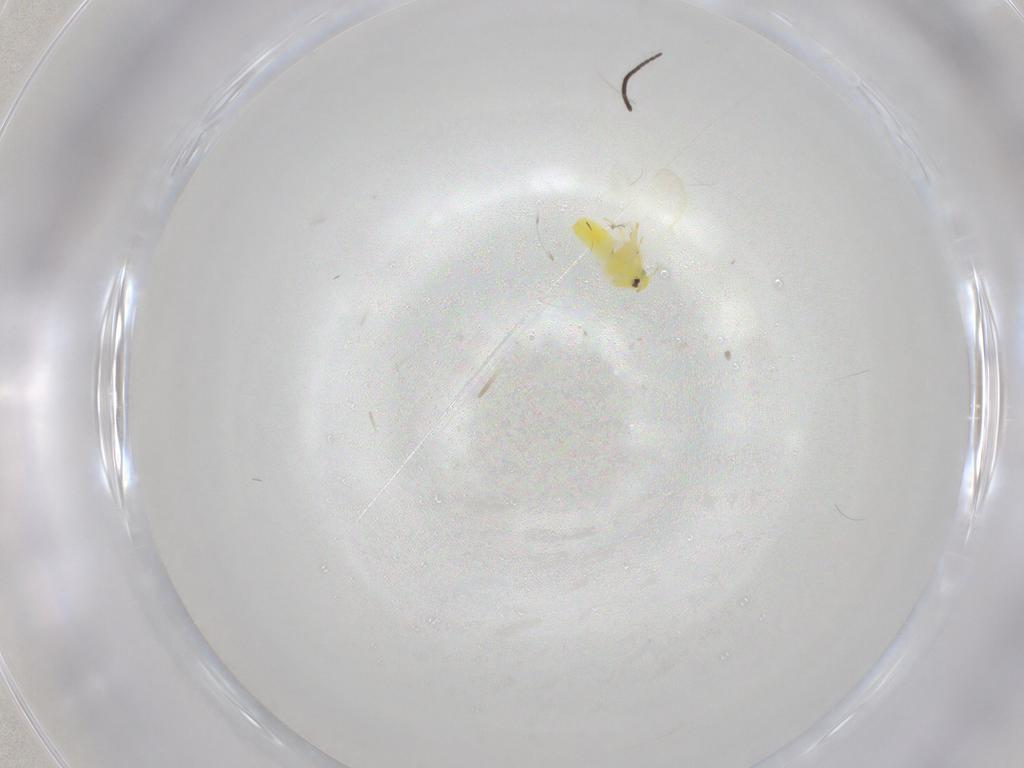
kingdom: Animalia
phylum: Arthropoda
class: Insecta
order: Hemiptera
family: Aleyrodidae
